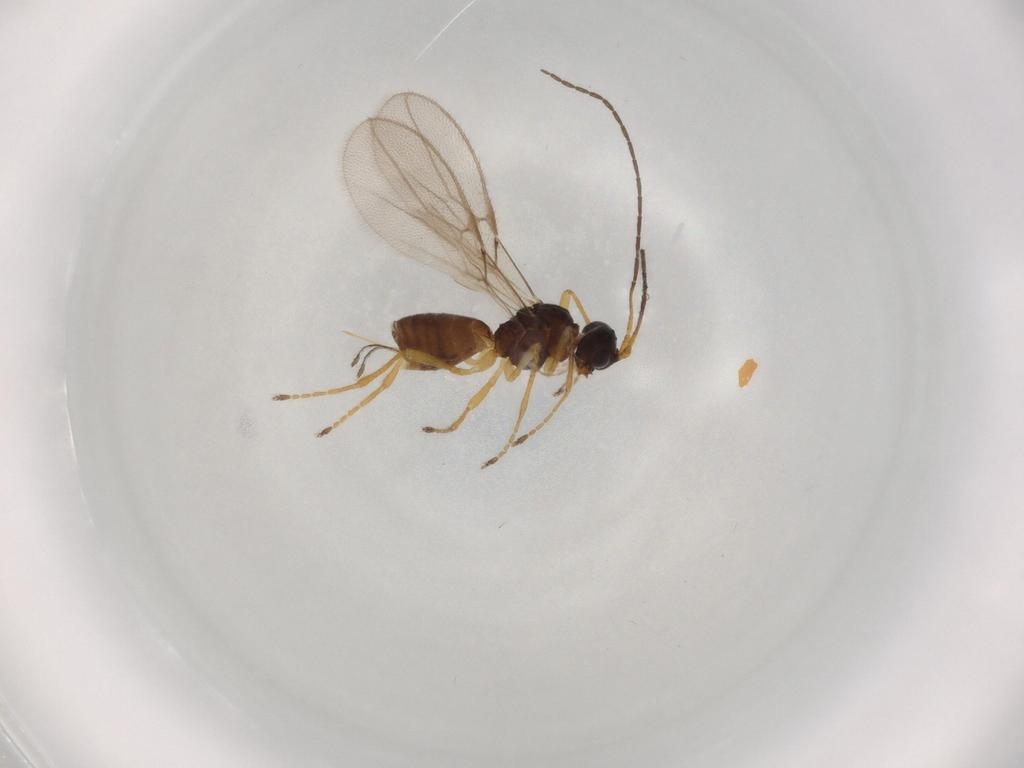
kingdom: Animalia
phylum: Arthropoda
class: Insecta
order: Hymenoptera
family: Braconidae
